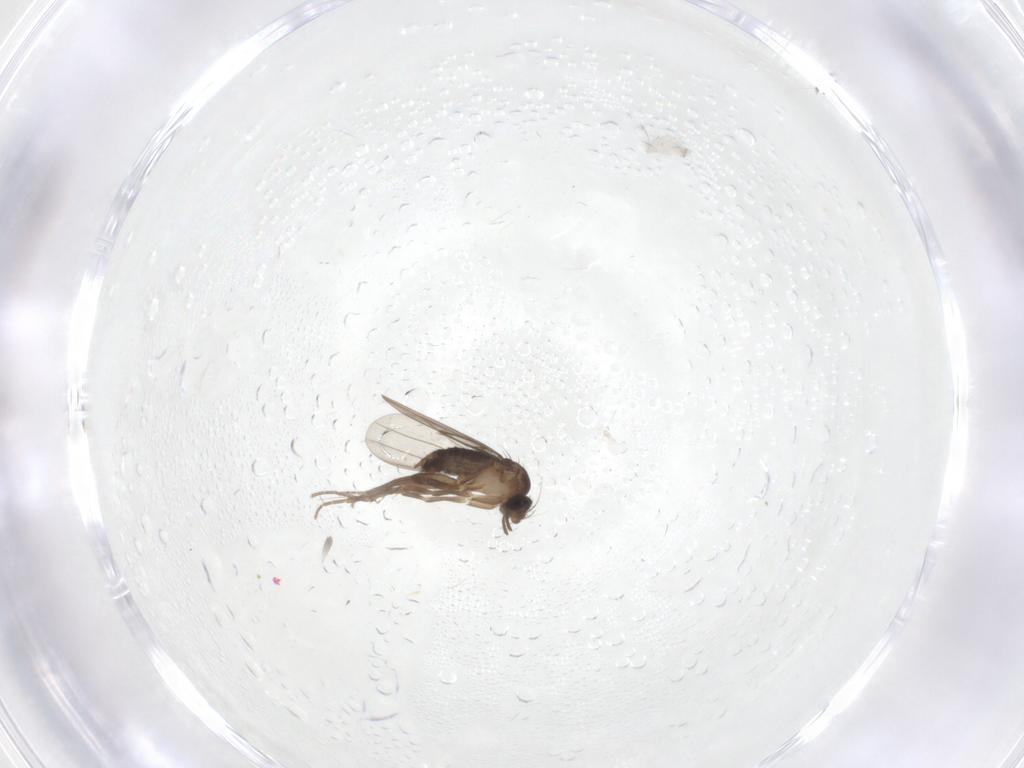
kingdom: Animalia
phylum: Arthropoda
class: Insecta
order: Diptera
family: Phoridae
